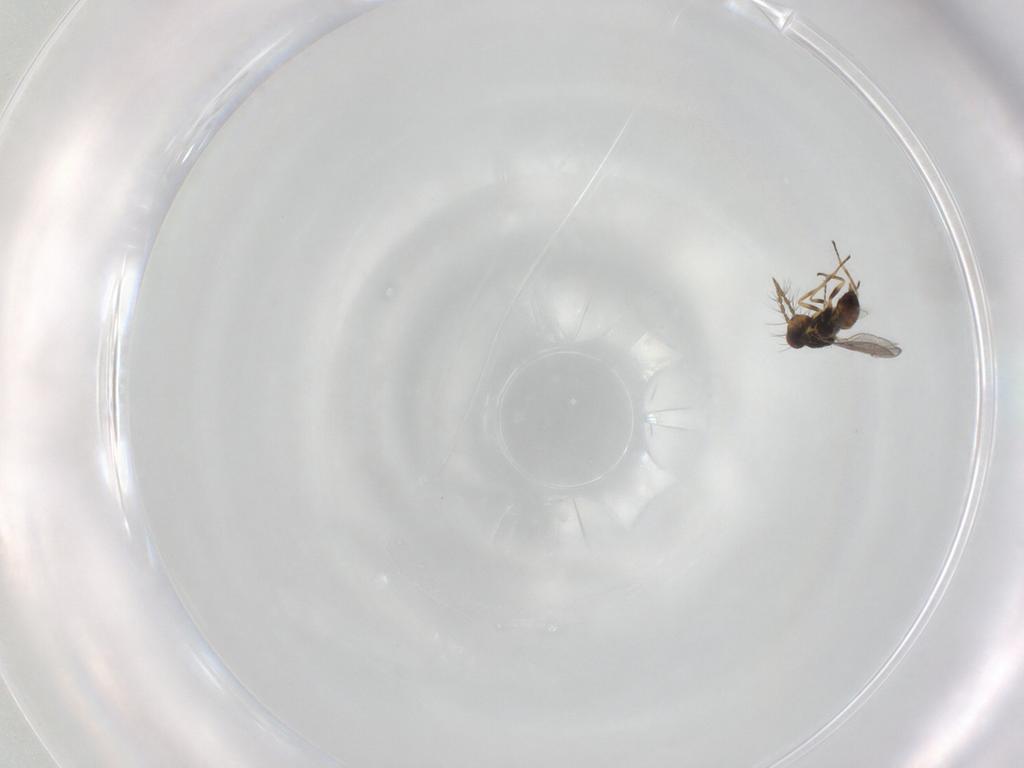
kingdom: Animalia
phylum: Arthropoda
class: Insecta
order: Hymenoptera
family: Eulophidae
